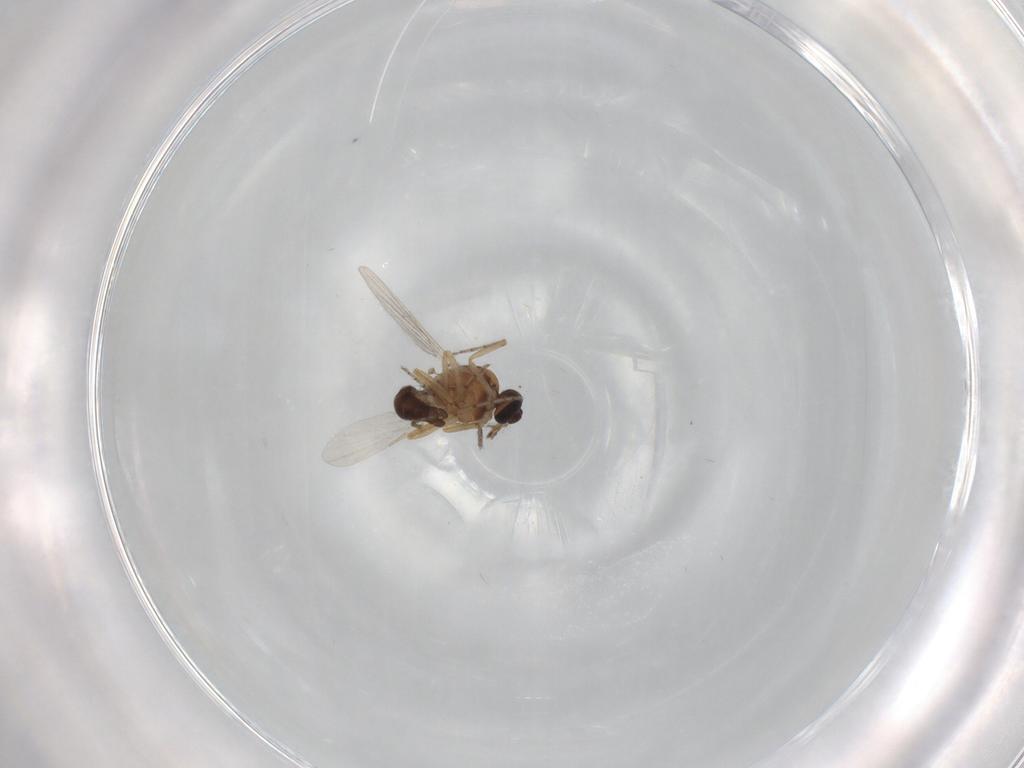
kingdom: Animalia
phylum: Arthropoda
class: Insecta
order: Diptera
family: Ceratopogonidae
